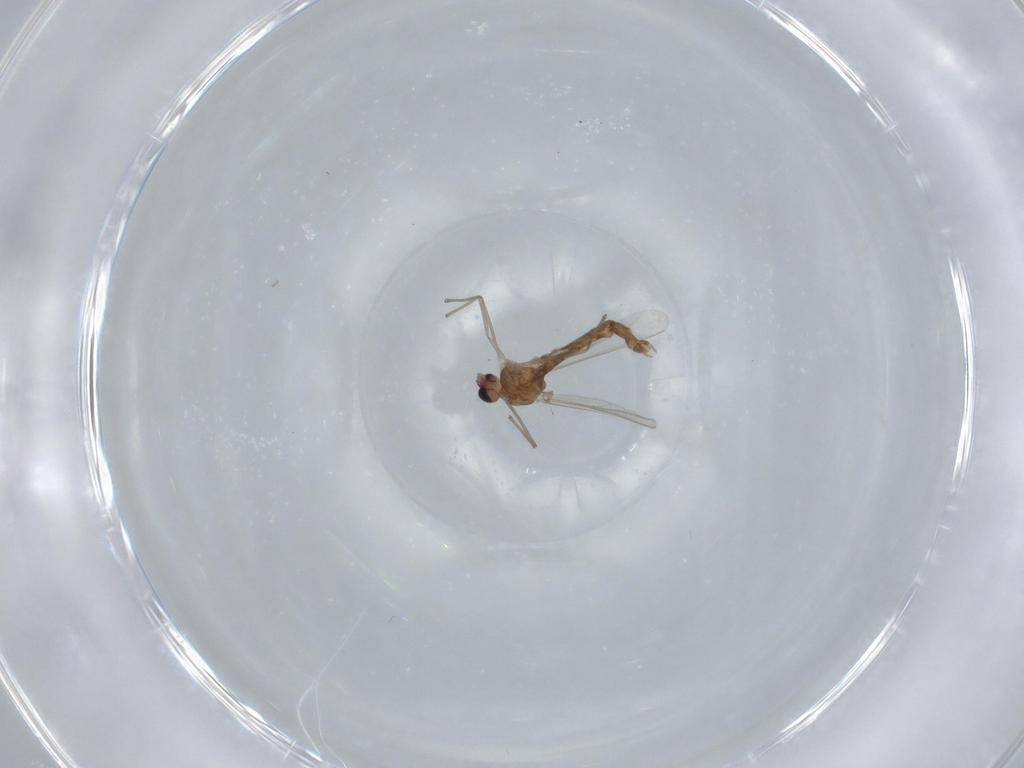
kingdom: Animalia
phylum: Arthropoda
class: Insecta
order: Diptera
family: Chironomidae
